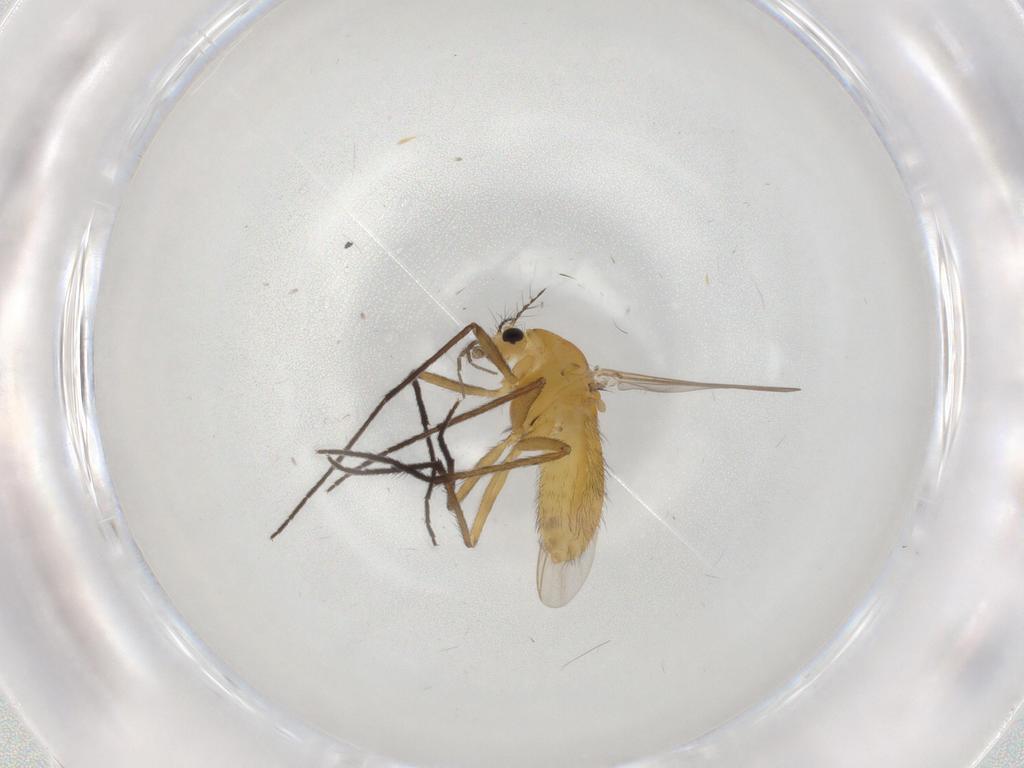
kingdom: Animalia
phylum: Arthropoda
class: Insecta
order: Diptera
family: Chironomidae
